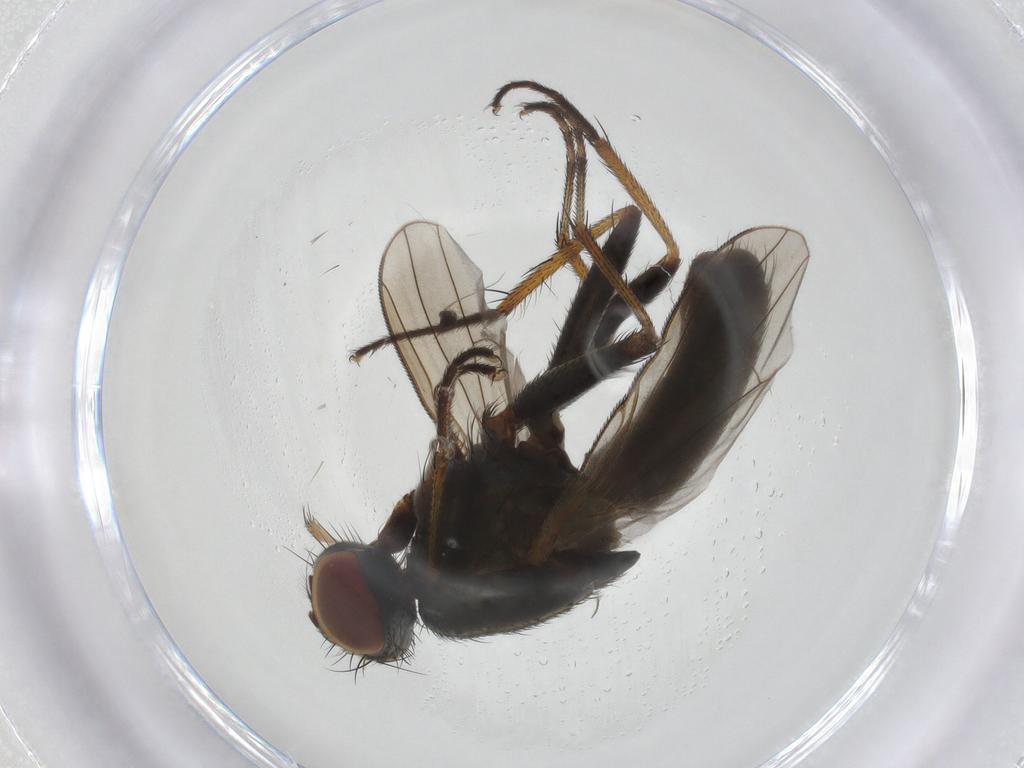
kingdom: Animalia
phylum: Arthropoda
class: Insecta
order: Diptera
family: Muscidae
